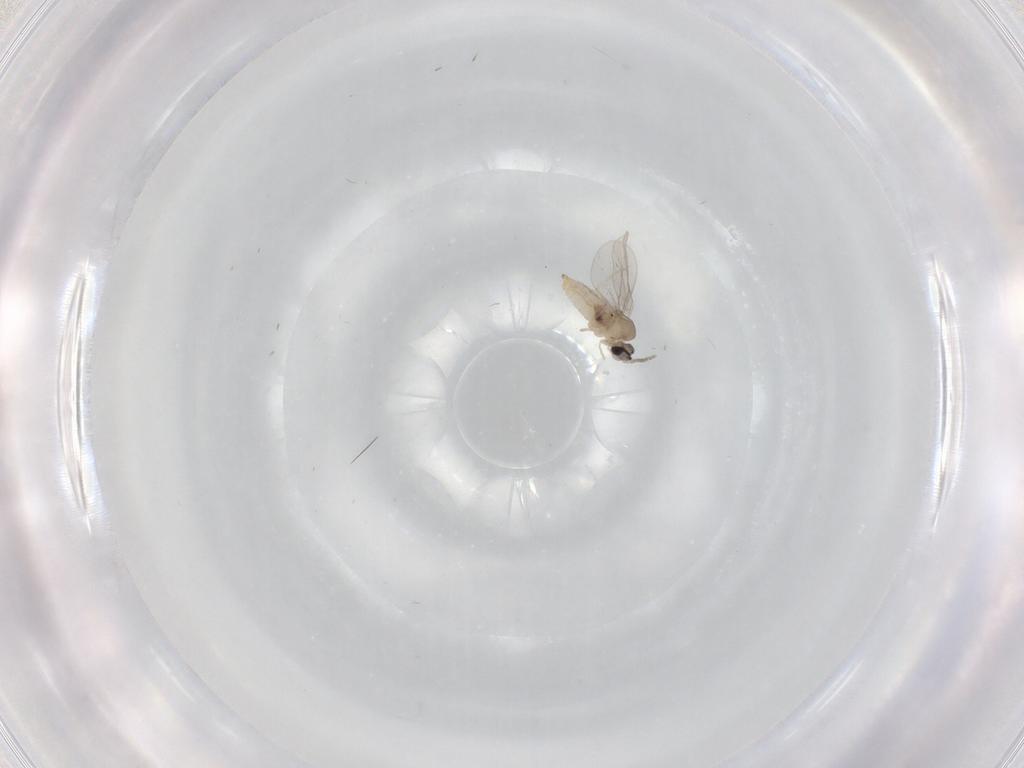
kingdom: Animalia
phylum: Arthropoda
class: Insecta
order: Diptera
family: Cecidomyiidae
